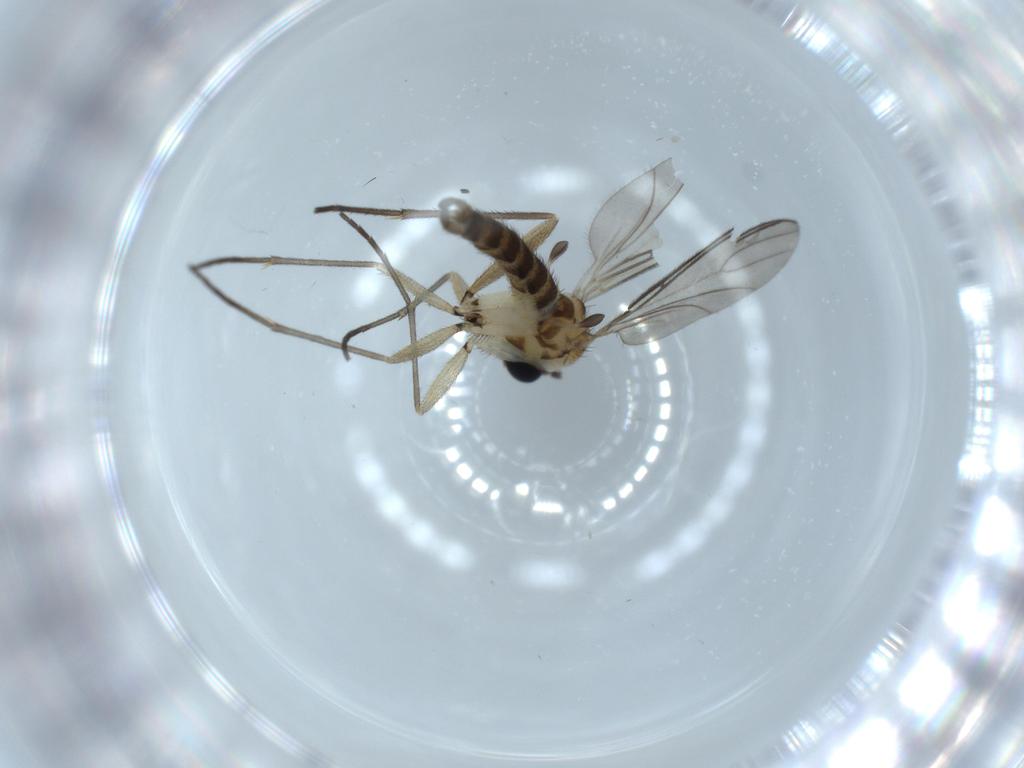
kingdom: Animalia
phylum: Arthropoda
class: Insecta
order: Diptera
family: Sciaridae
